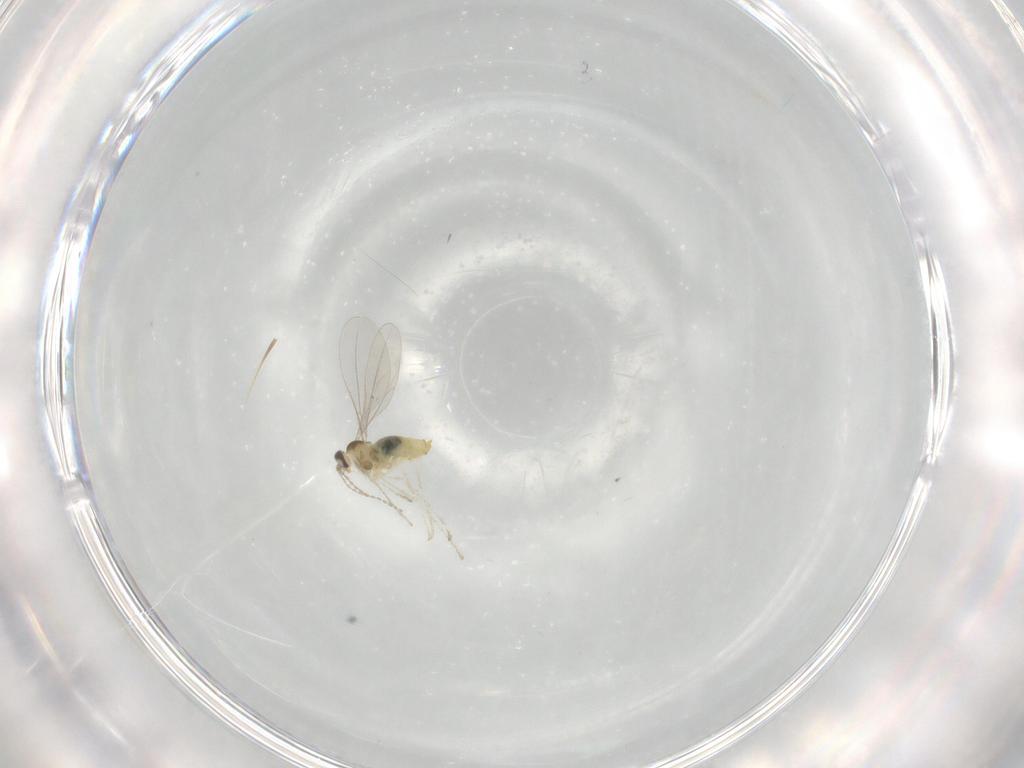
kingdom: Animalia
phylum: Arthropoda
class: Insecta
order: Diptera
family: Cecidomyiidae
